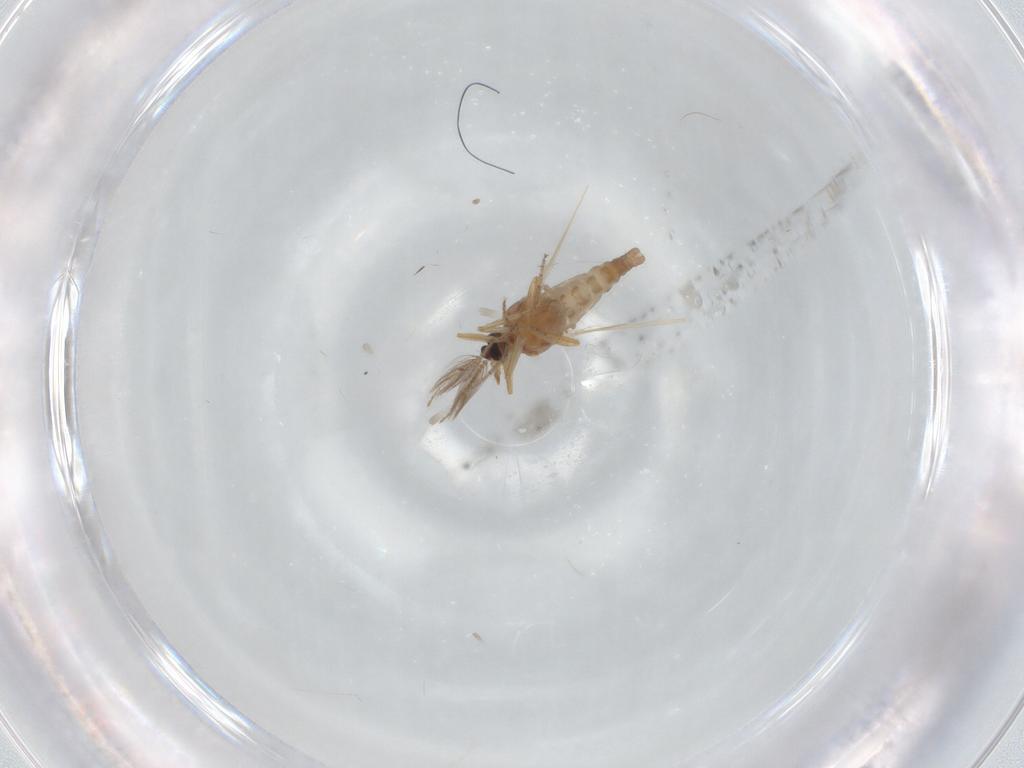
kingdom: Animalia
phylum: Arthropoda
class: Insecta
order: Diptera
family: Ceratopogonidae
